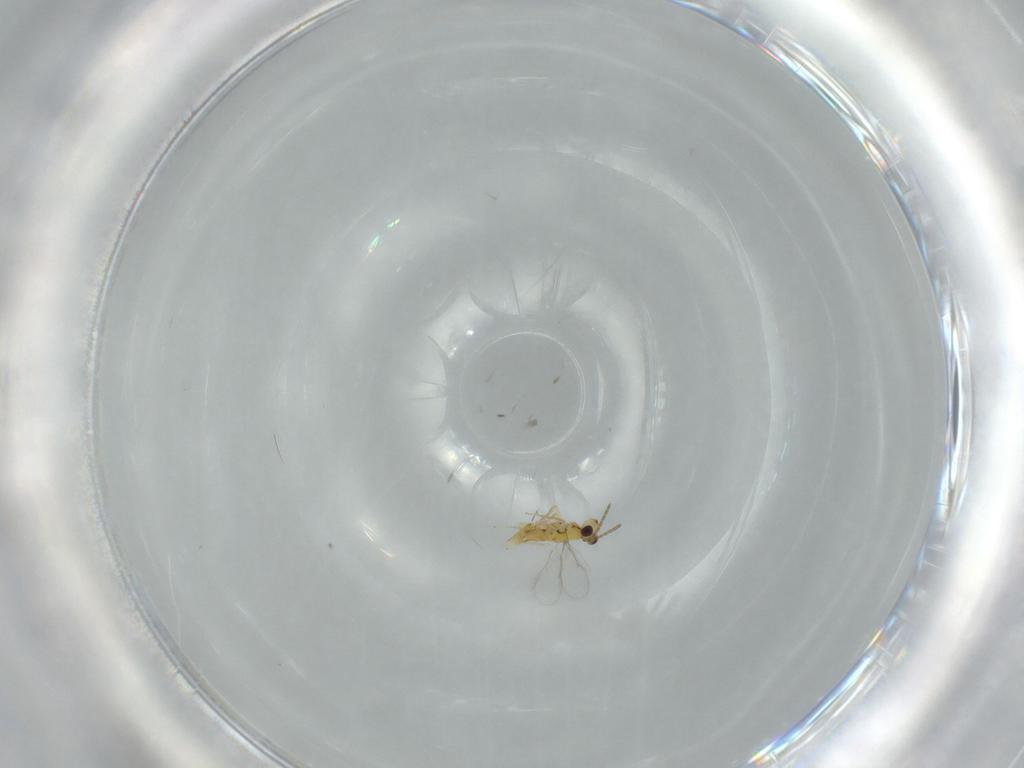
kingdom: Animalia
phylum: Arthropoda
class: Insecta
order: Hymenoptera
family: Aphelinidae
